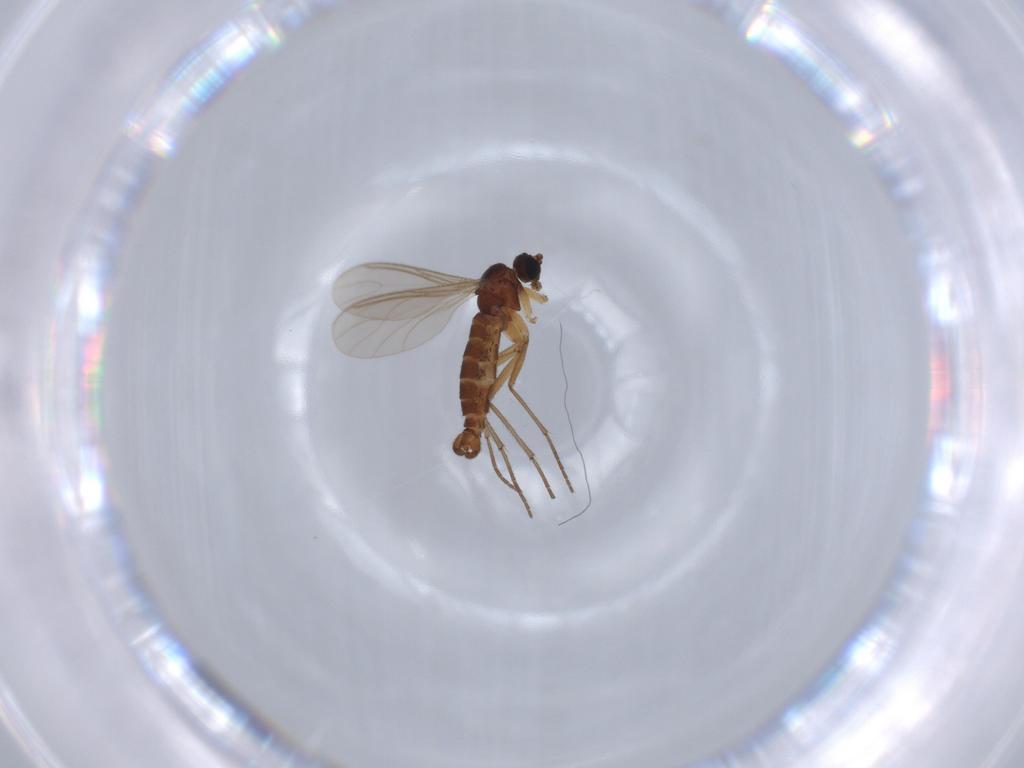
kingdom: Animalia
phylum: Arthropoda
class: Insecta
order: Diptera
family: Sciaridae
